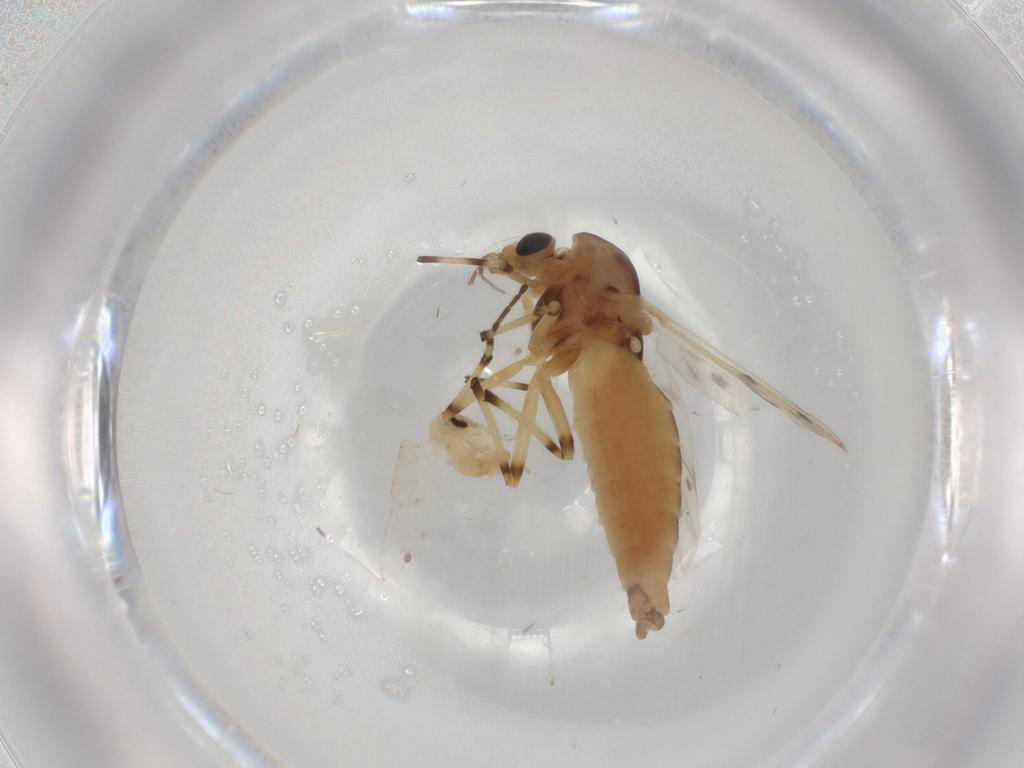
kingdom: Animalia
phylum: Arthropoda
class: Insecta
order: Diptera
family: Chironomidae
